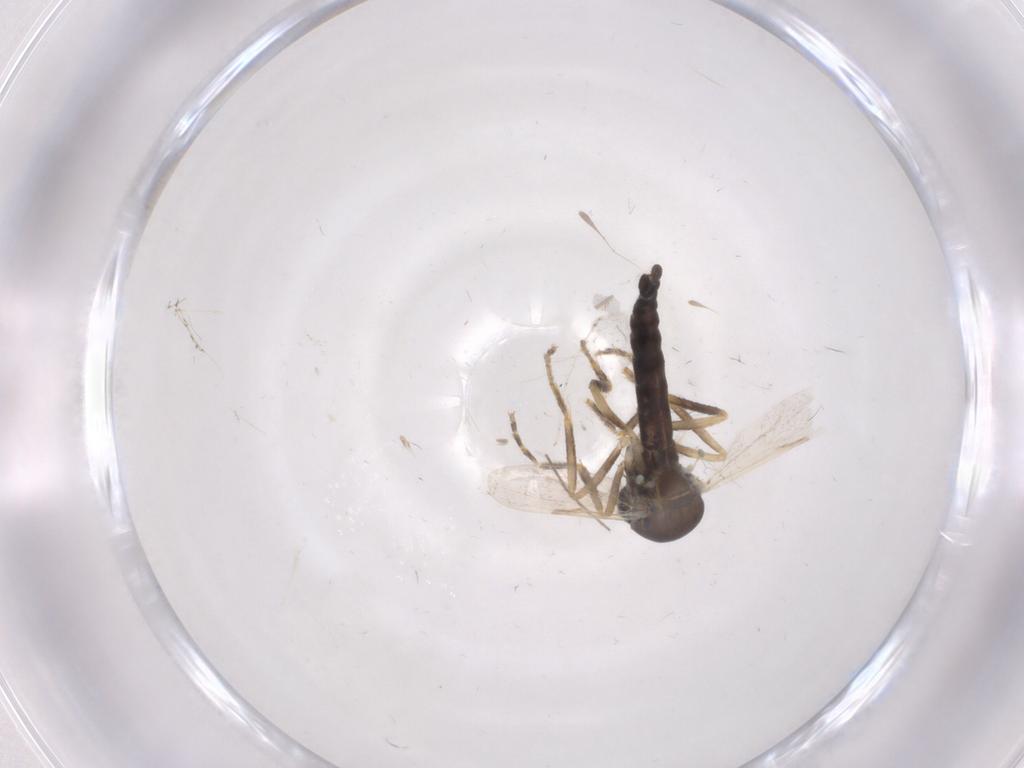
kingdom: Animalia
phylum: Arthropoda
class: Insecta
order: Diptera
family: Ceratopogonidae
